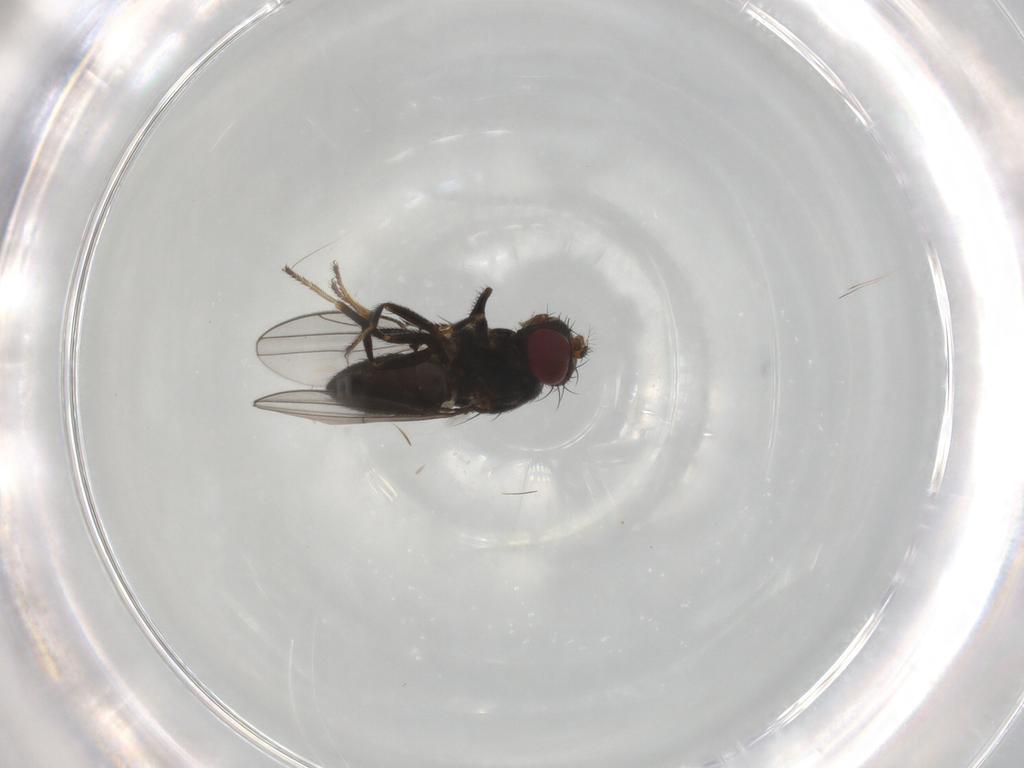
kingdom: Animalia
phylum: Arthropoda
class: Insecta
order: Diptera
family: Ephydridae
